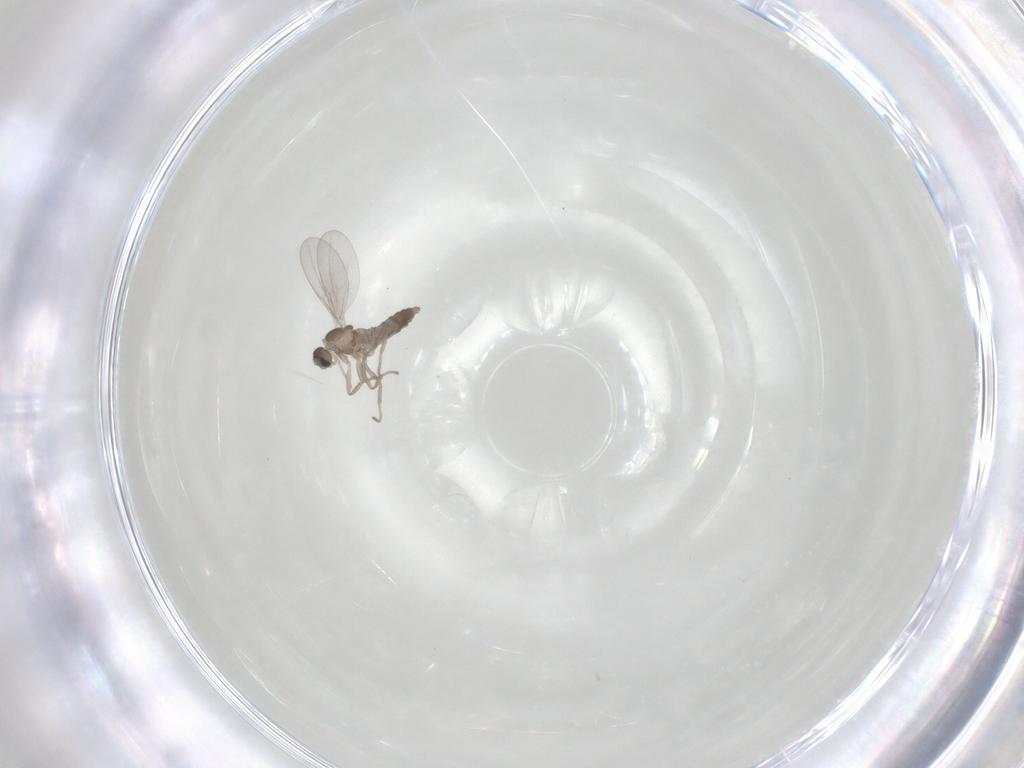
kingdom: Animalia
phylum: Arthropoda
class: Insecta
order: Diptera
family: Cecidomyiidae
